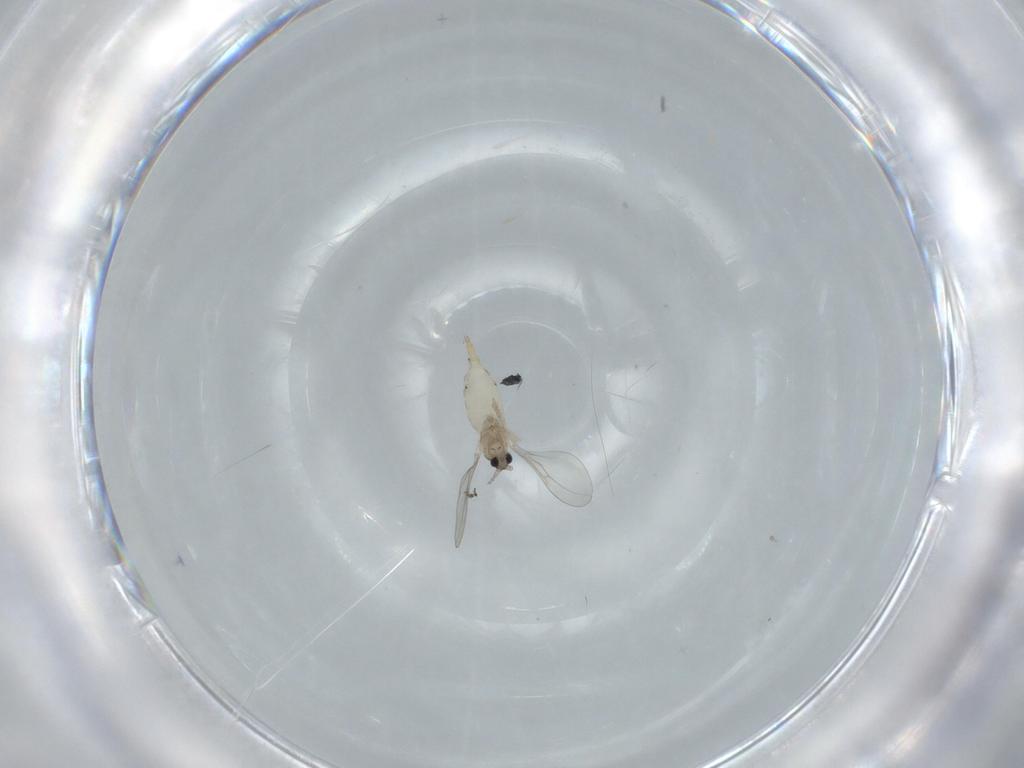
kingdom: Animalia
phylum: Arthropoda
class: Insecta
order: Diptera
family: Cecidomyiidae
